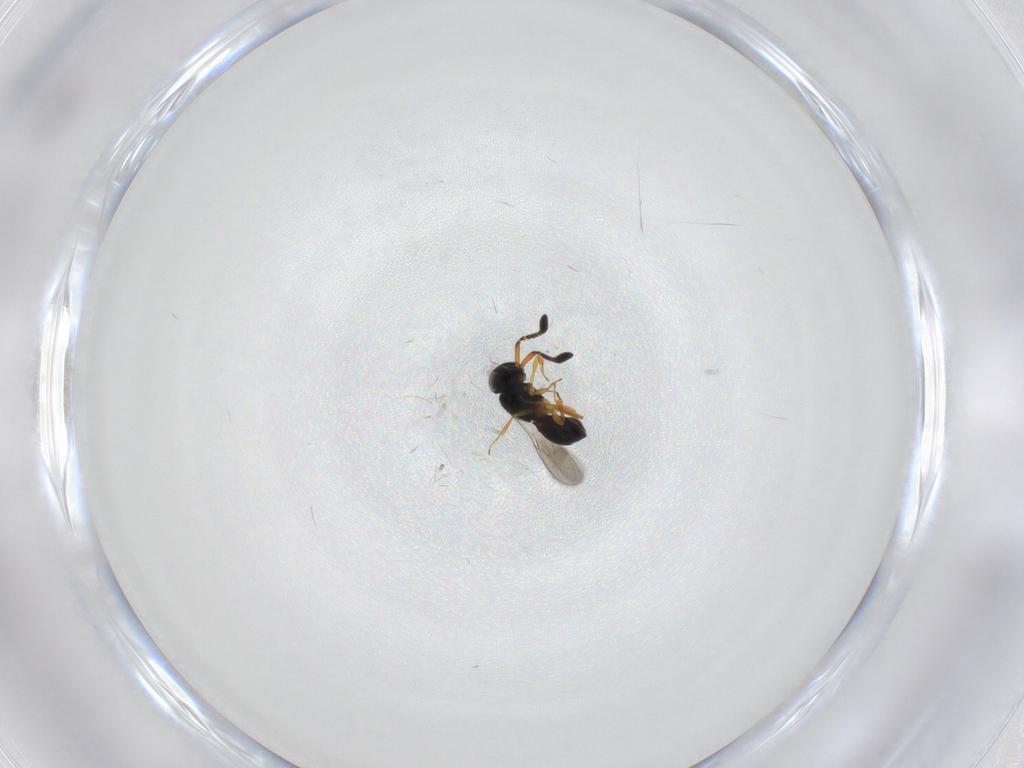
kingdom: Animalia
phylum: Arthropoda
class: Insecta
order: Hymenoptera
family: Scelionidae
